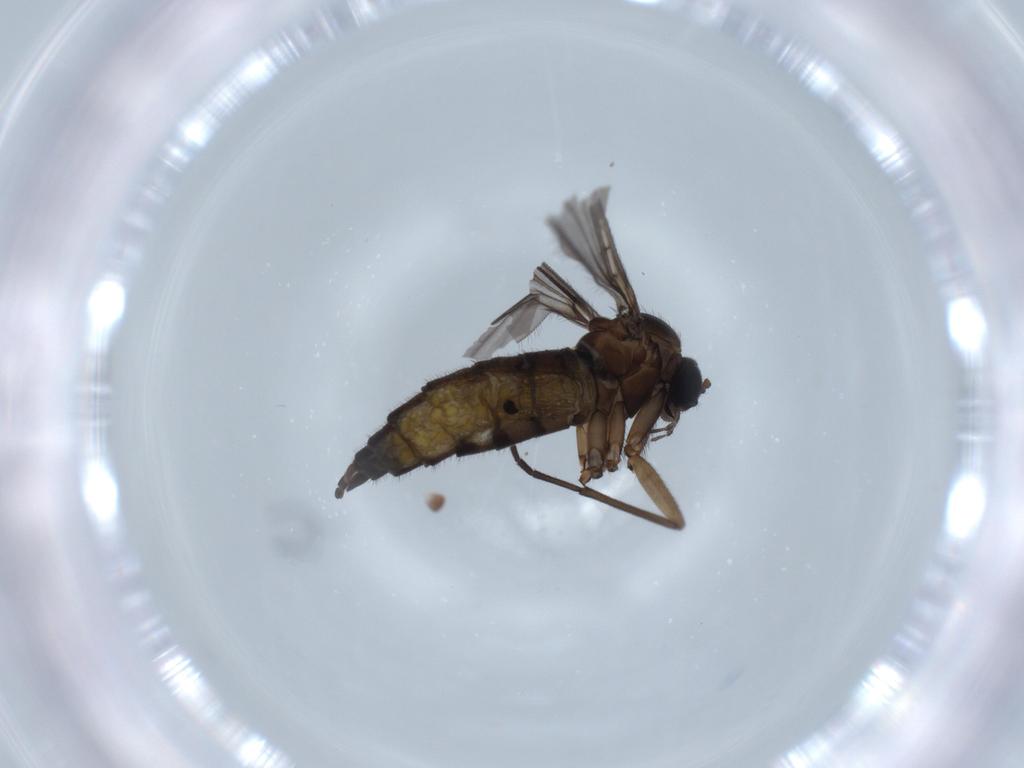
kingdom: Animalia
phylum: Arthropoda
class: Insecta
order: Diptera
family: Sciaridae
